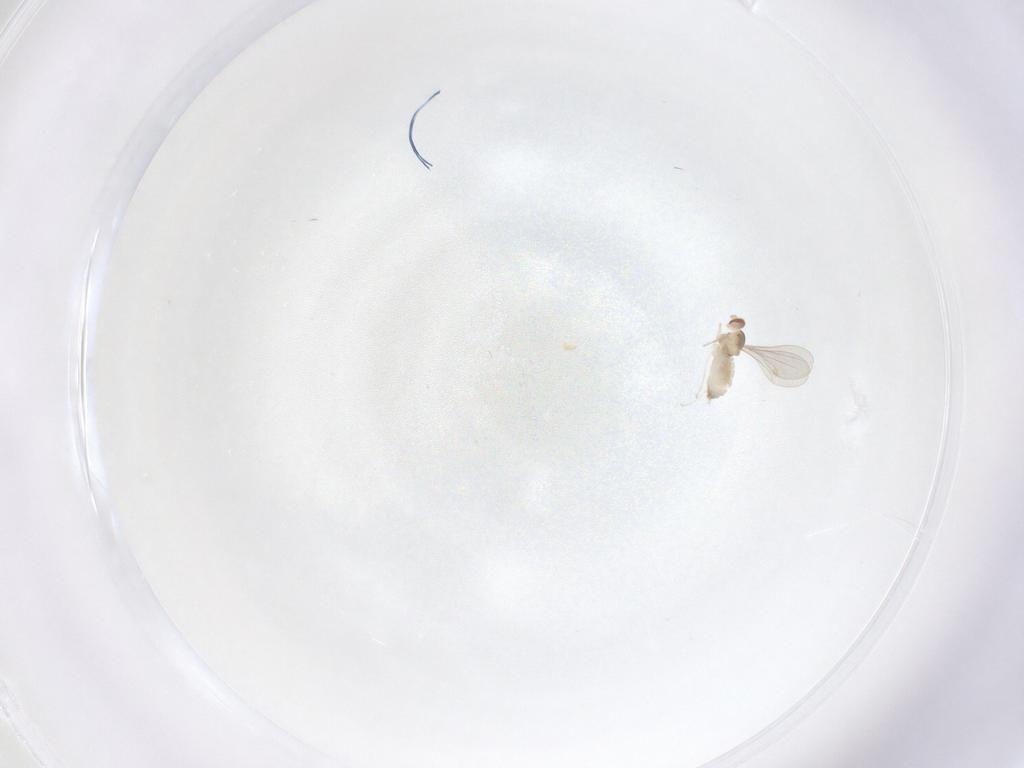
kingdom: Animalia
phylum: Arthropoda
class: Insecta
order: Diptera
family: Cecidomyiidae
